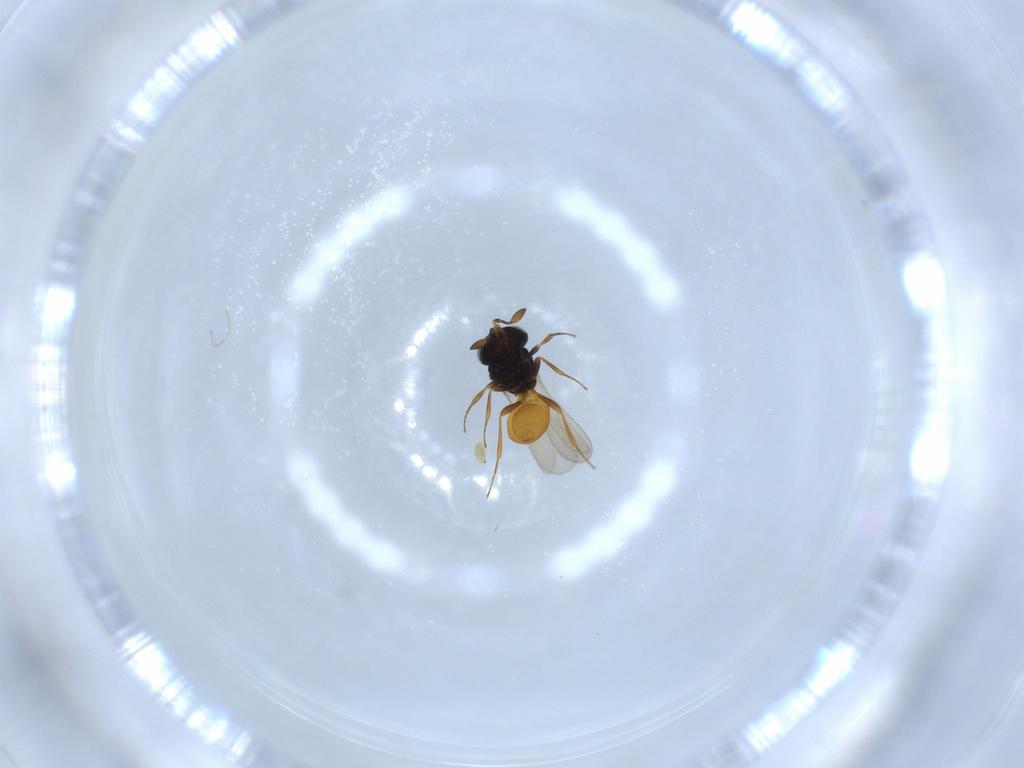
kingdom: Animalia
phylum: Arthropoda
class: Insecta
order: Hymenoptera
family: Scelionidae
